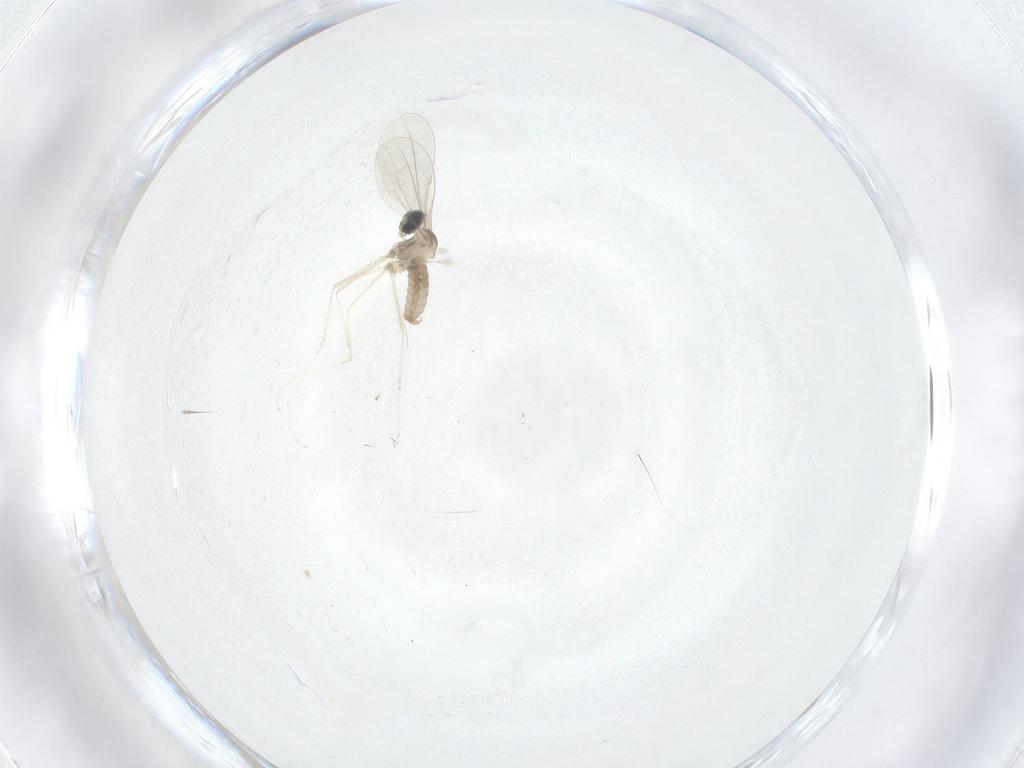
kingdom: Animalia
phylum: Arthropoda
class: Insecta
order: Diptera
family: Cecidomyiidae
